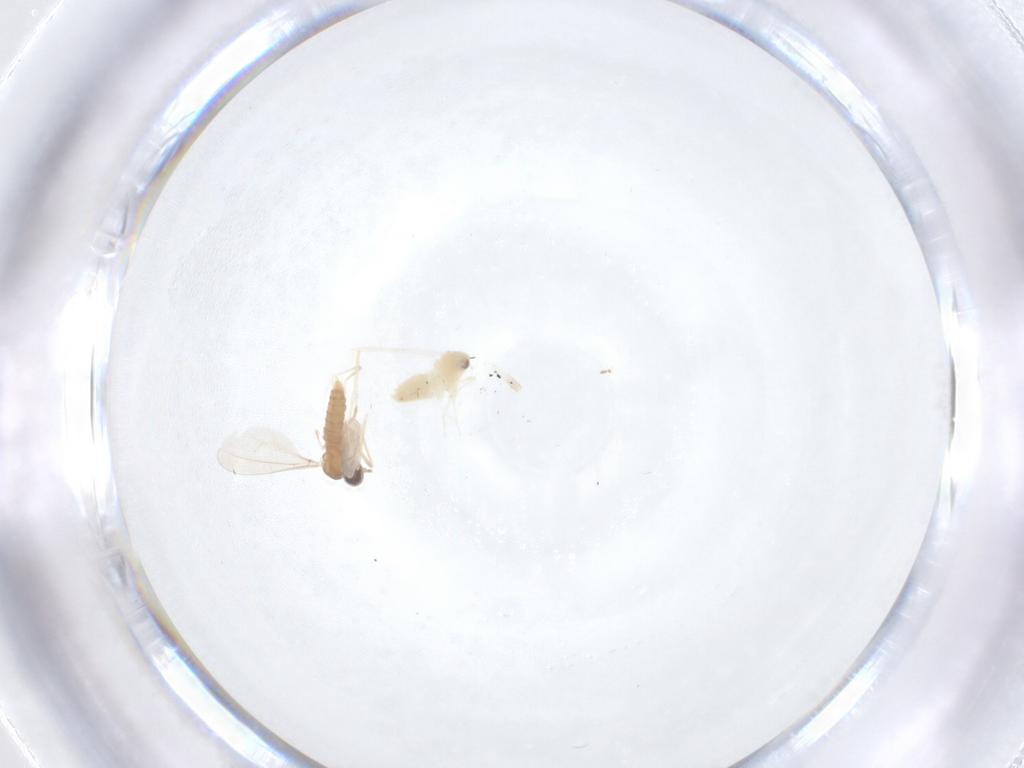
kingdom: Animalia
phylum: Arthropoda
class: Insecta
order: Diptera
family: Cecidomyiidae
